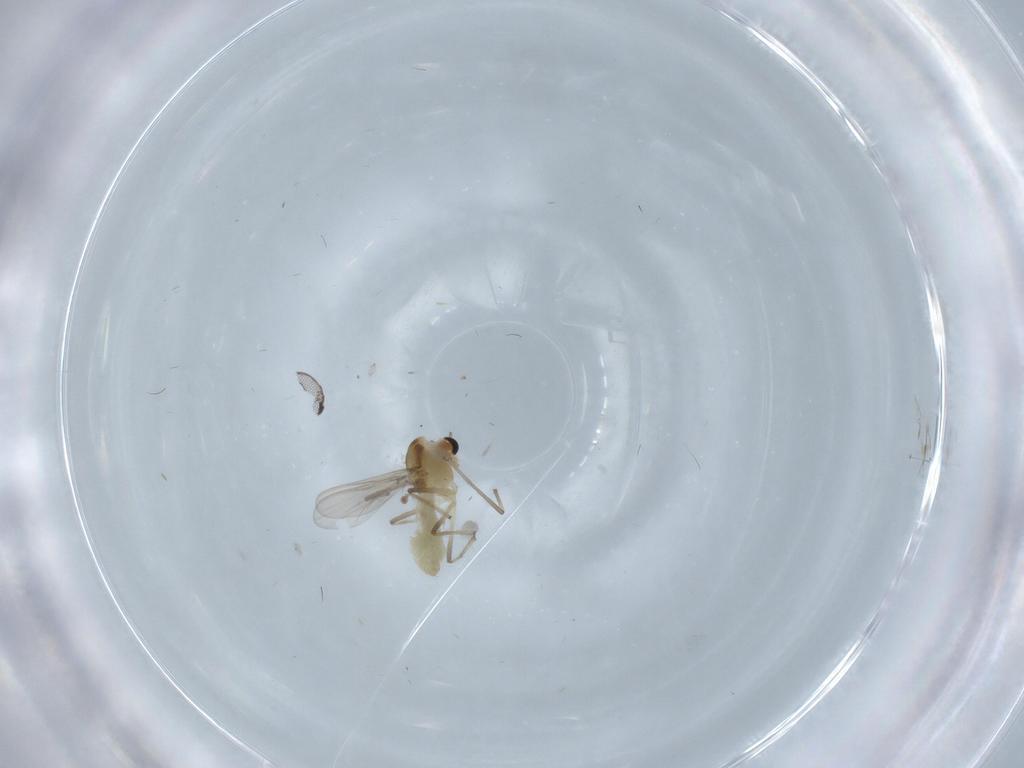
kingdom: Animalia
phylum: Arthropoda
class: Insecta
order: Diptera
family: Chironomidae
